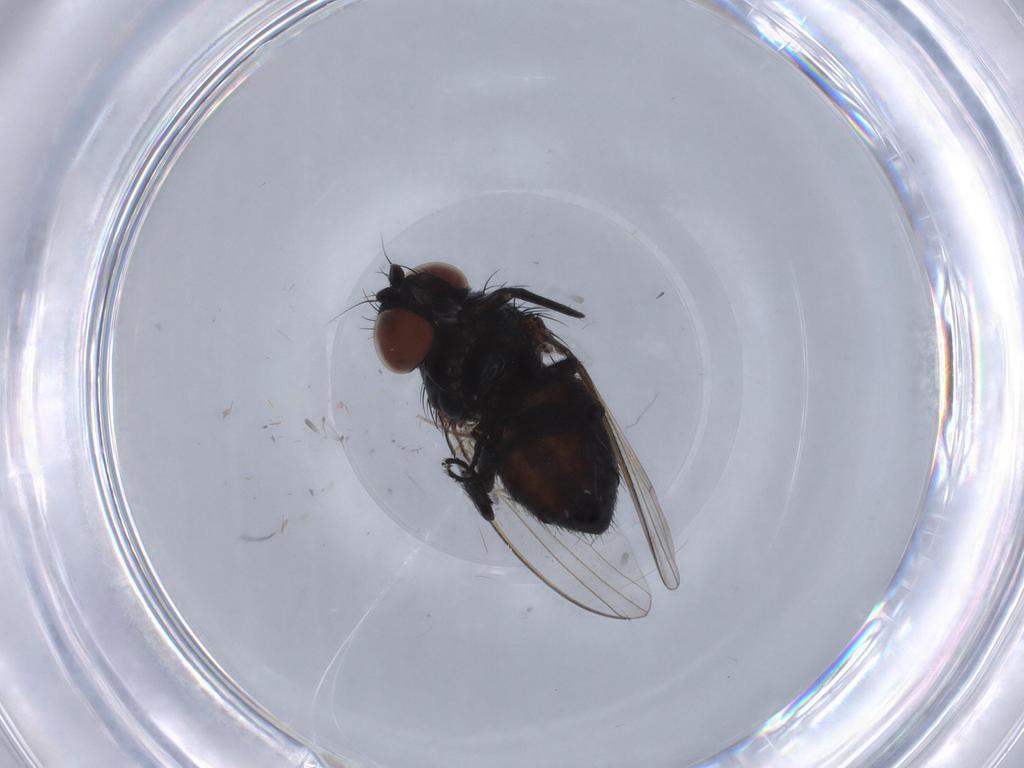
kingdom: Animalia
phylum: Arthropoda
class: Insecta
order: Diptera
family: Milichiidae
